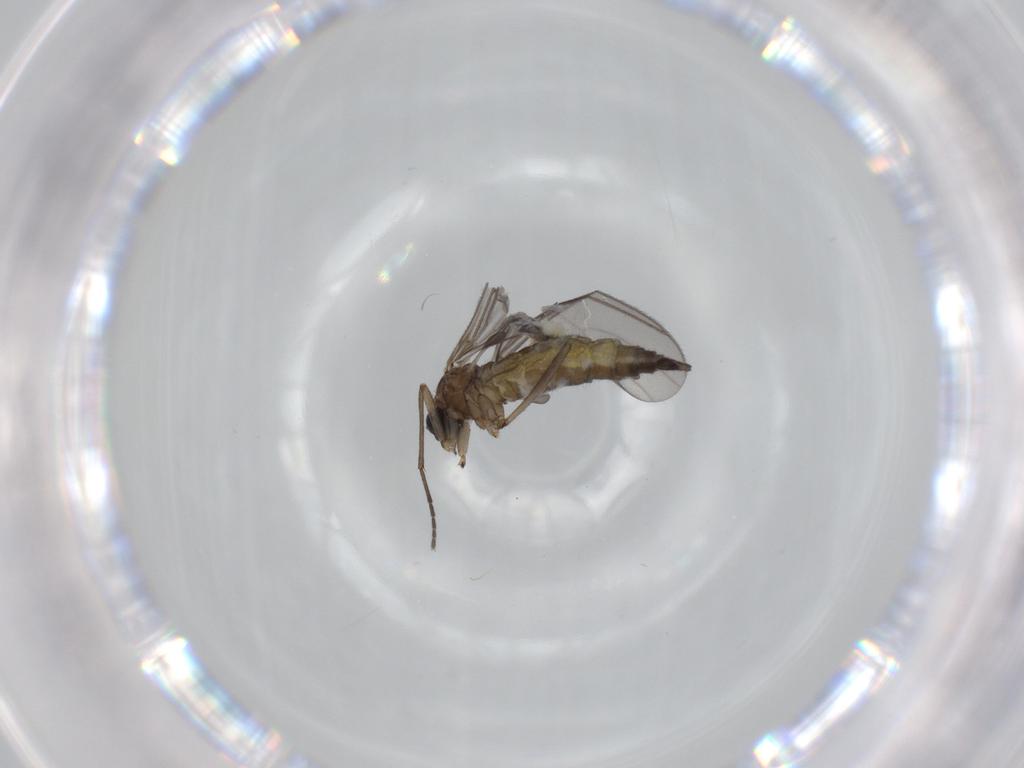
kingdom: Animalia
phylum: Arthropoda
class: Insecta
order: Diptera
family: Sciaridae
